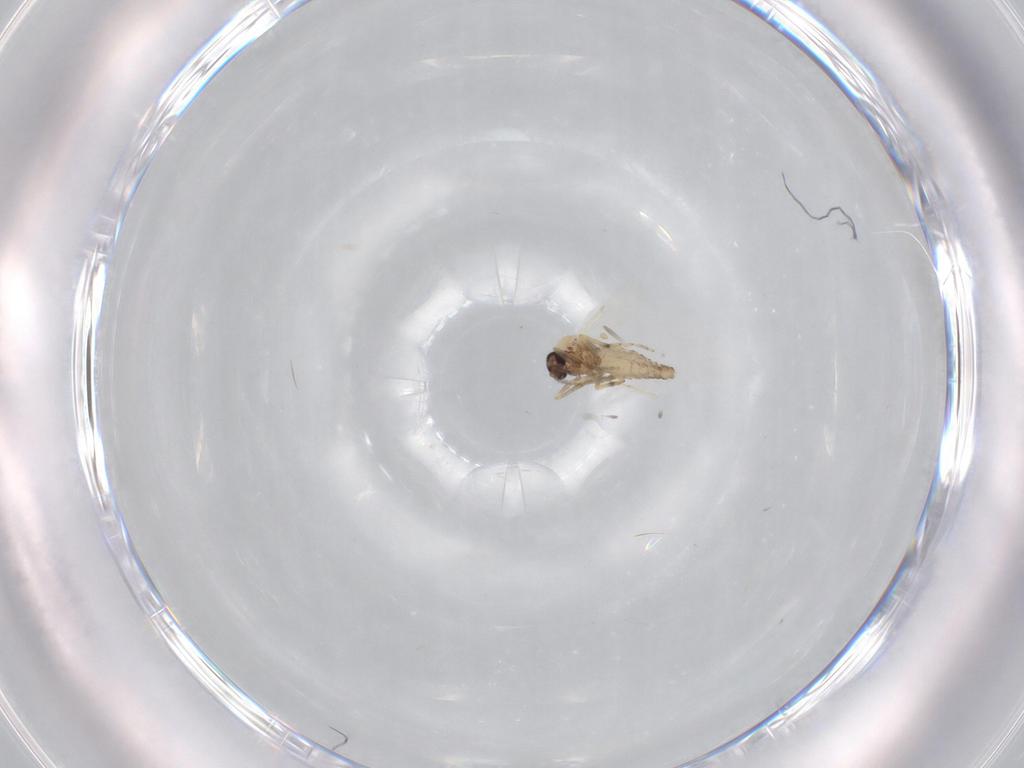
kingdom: Animalia
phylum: Arthropoda
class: Insecta
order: Diptera
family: Ceratopogonidae
